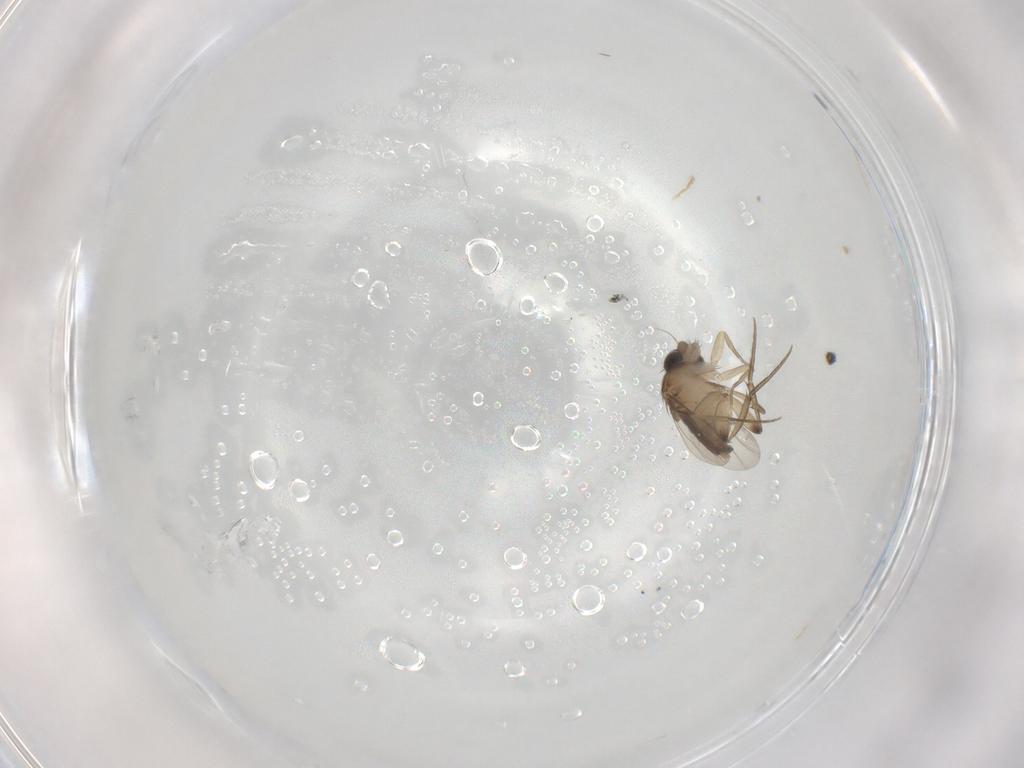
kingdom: Animalia
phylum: Arthropoda
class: Insecta
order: Diptera
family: Phoridae
